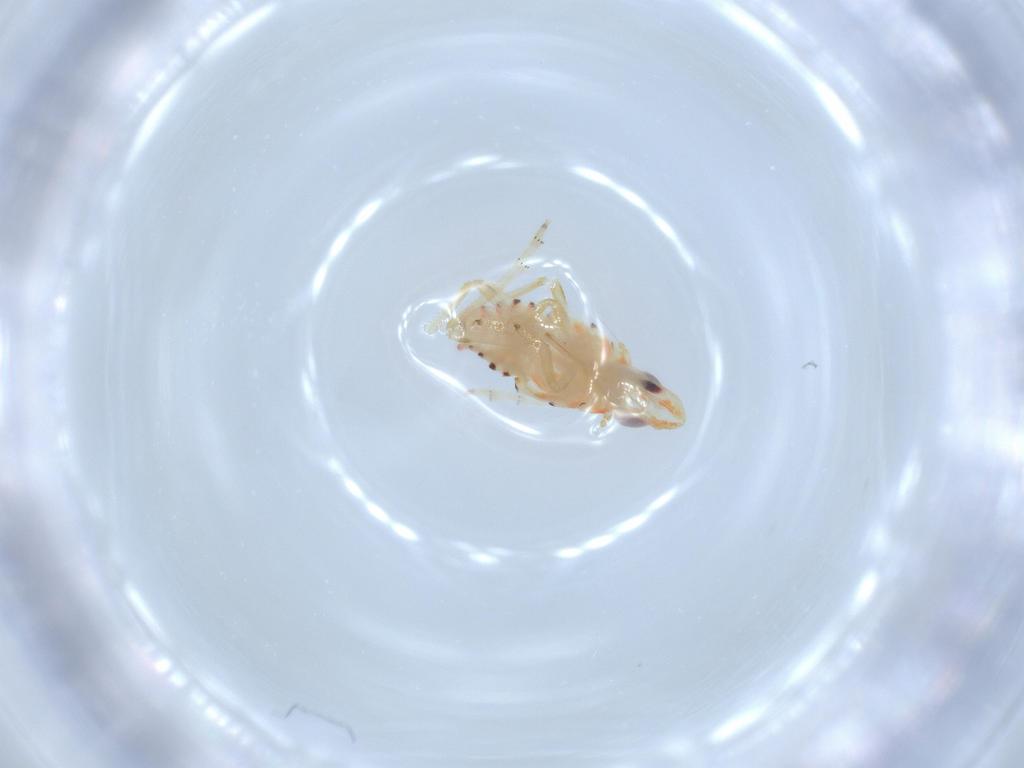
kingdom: Animalia
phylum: Arthropoda
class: Insecta
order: Hemiptera
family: Tropiduchidae
